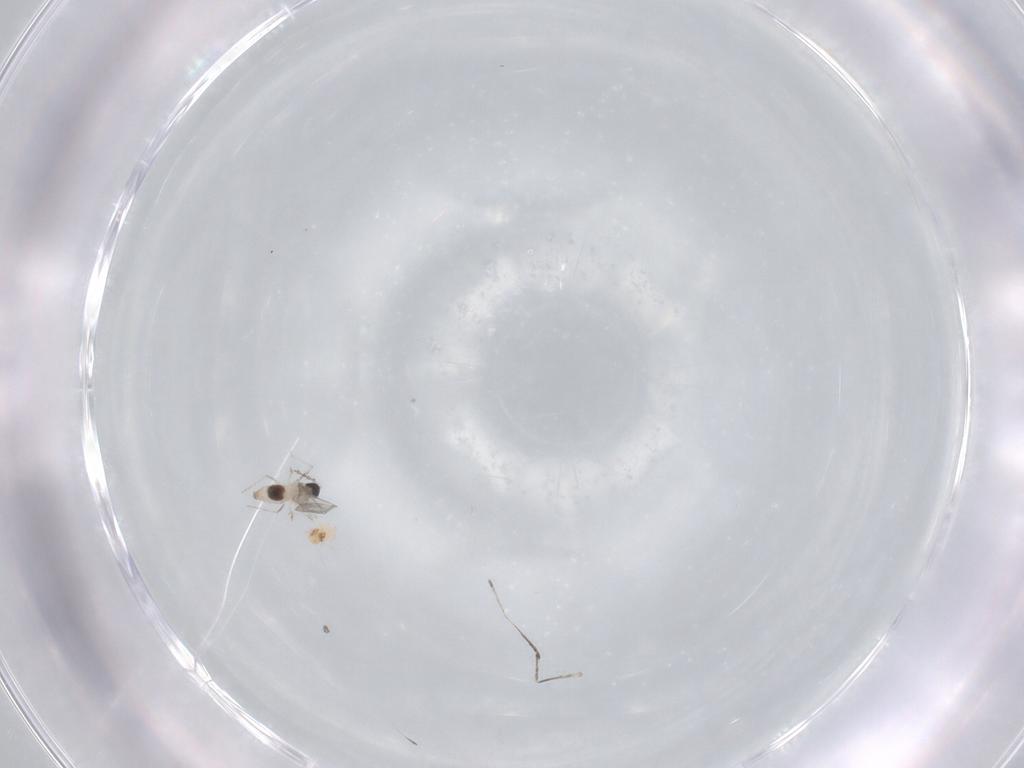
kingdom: Animalia
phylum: Arthropoda
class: Insecta
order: Diptera
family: Cecidomyiidae
